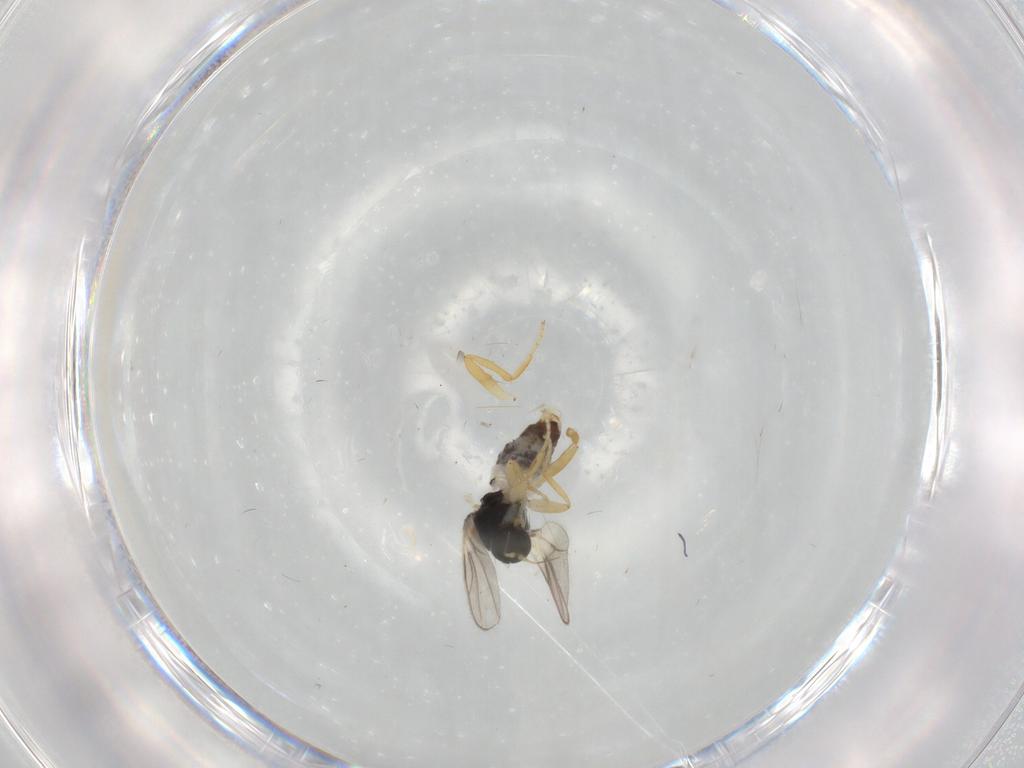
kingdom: Animalia
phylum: Arthropoda
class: Insecta
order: Diptera
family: Hybotidae
